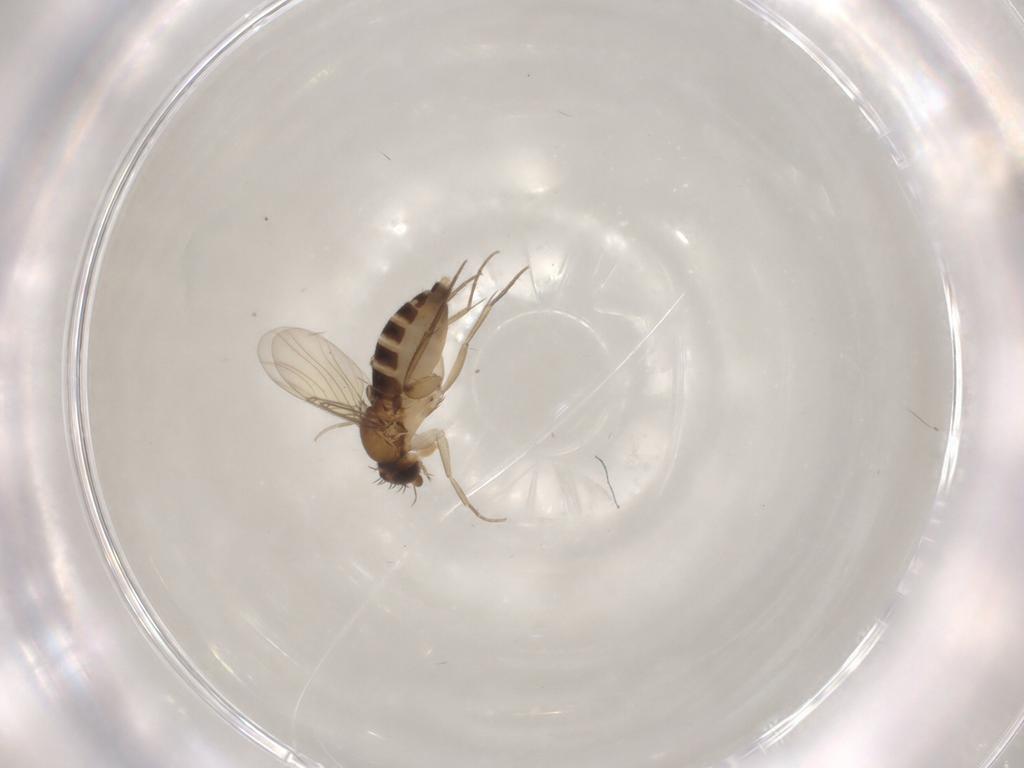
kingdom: Animalia
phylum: Arthropoda
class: Insecta
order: Diptera
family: Phoridae
